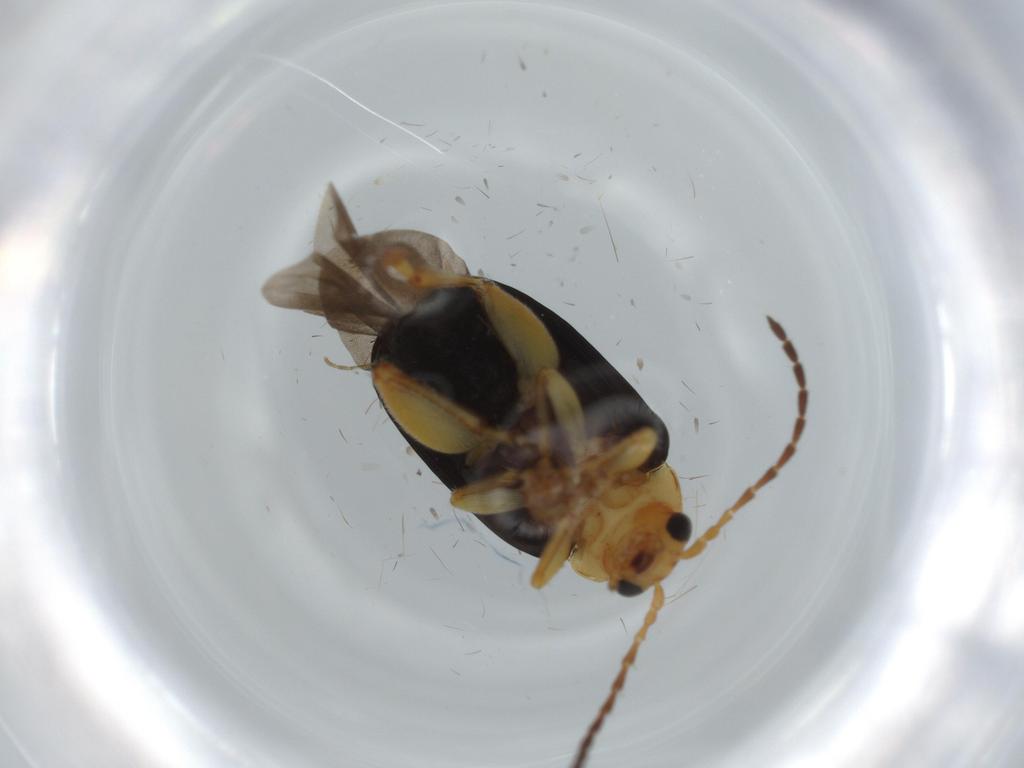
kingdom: Animalia
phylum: Arthropoda
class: Insecta
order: Coleoptera
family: Chrysomelidae
